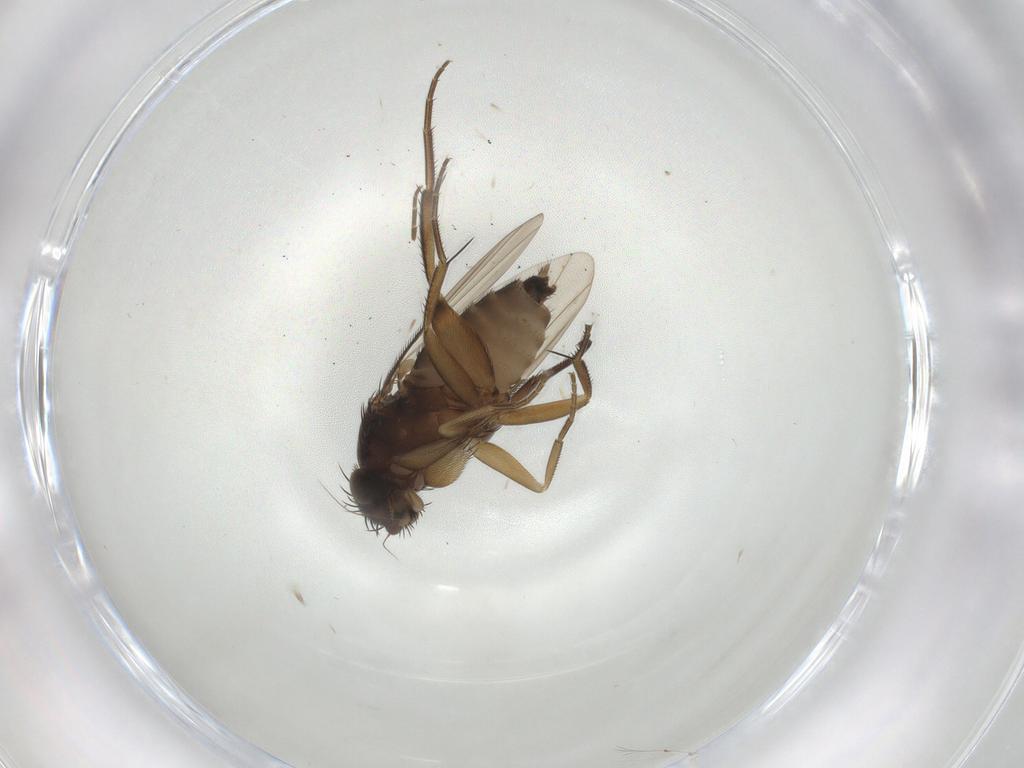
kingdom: Animalia
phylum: Arthropoda
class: Insecta
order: Diptera
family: Phoridae
